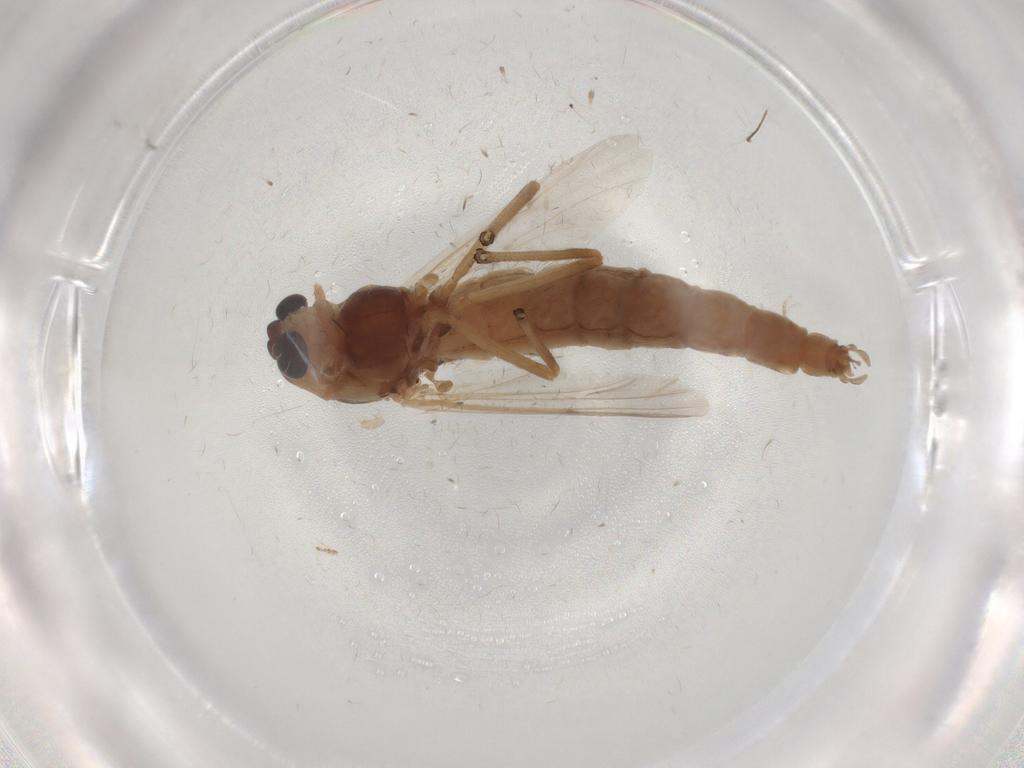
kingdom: Animalia
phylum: Arthropoda
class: Insecta
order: Diptera
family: Chironomidae
